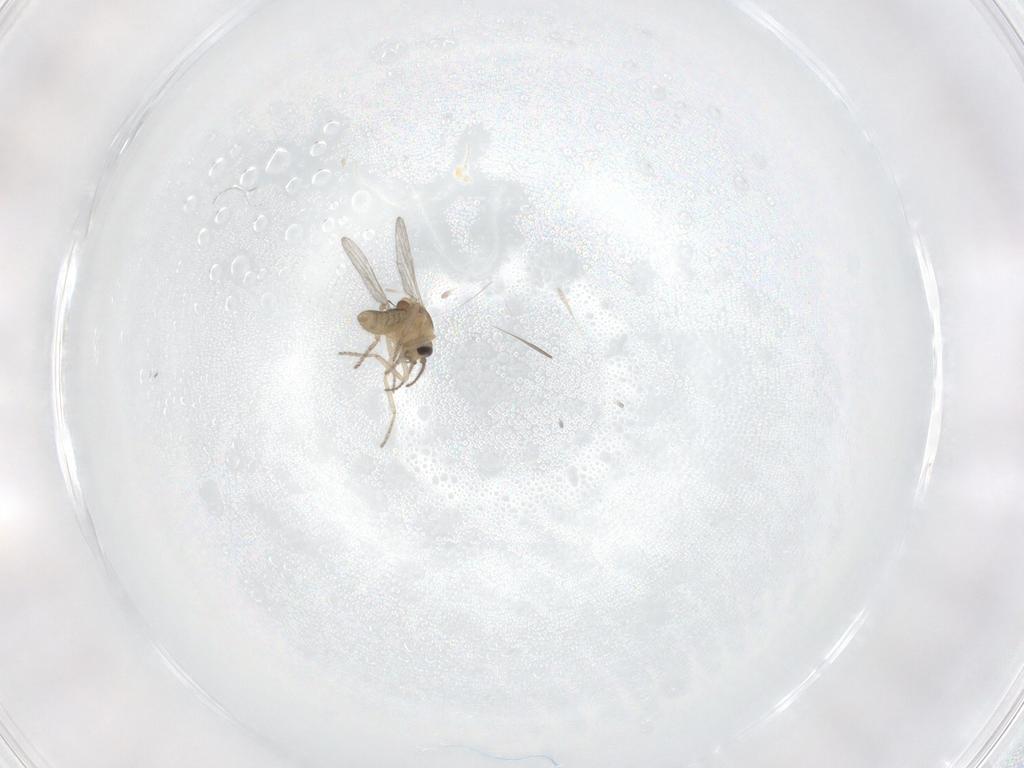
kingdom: Animalia
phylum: Arthropoda
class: Insecta
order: Diptera
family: Ceratopogonidae
